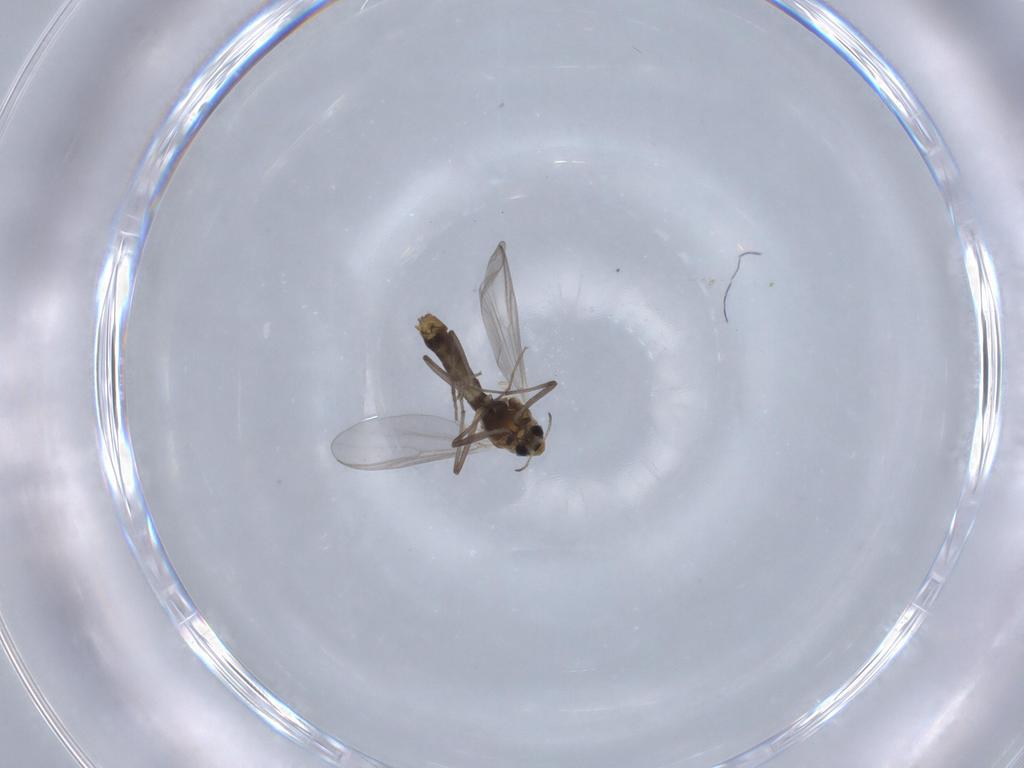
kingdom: Animalia
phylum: Arthropoda
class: Insecta
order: Diptera
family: Chironomidae
